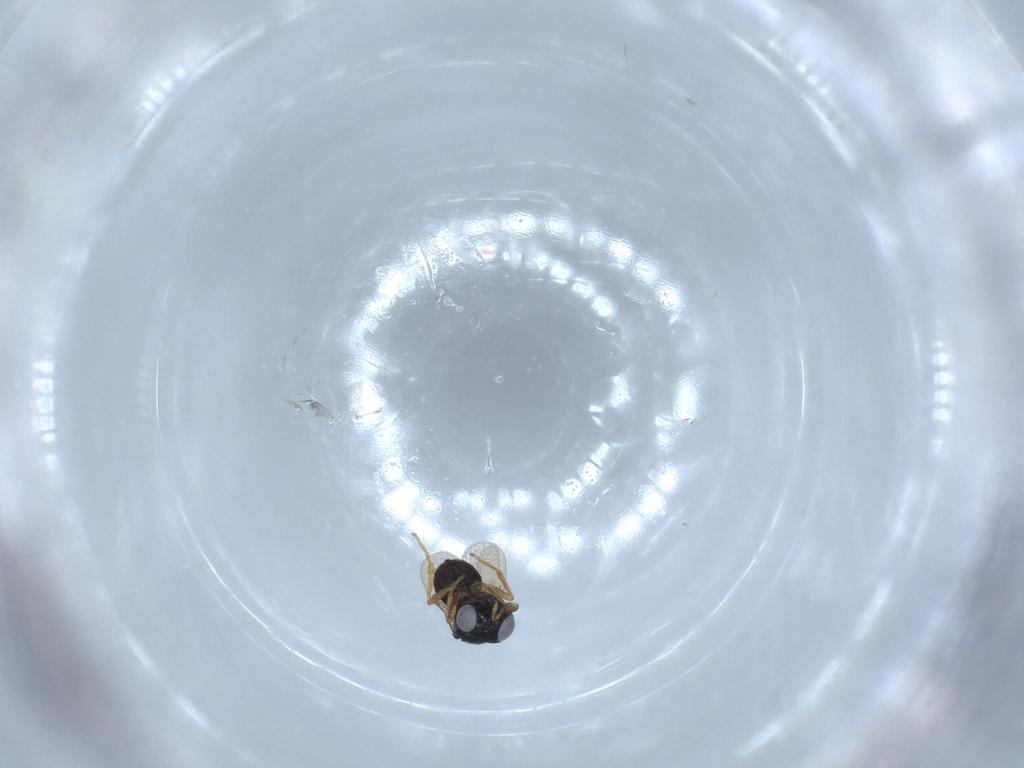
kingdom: Animalia
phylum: Arthropoda
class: Insecta
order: Hymenoptera
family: Scelionidae
